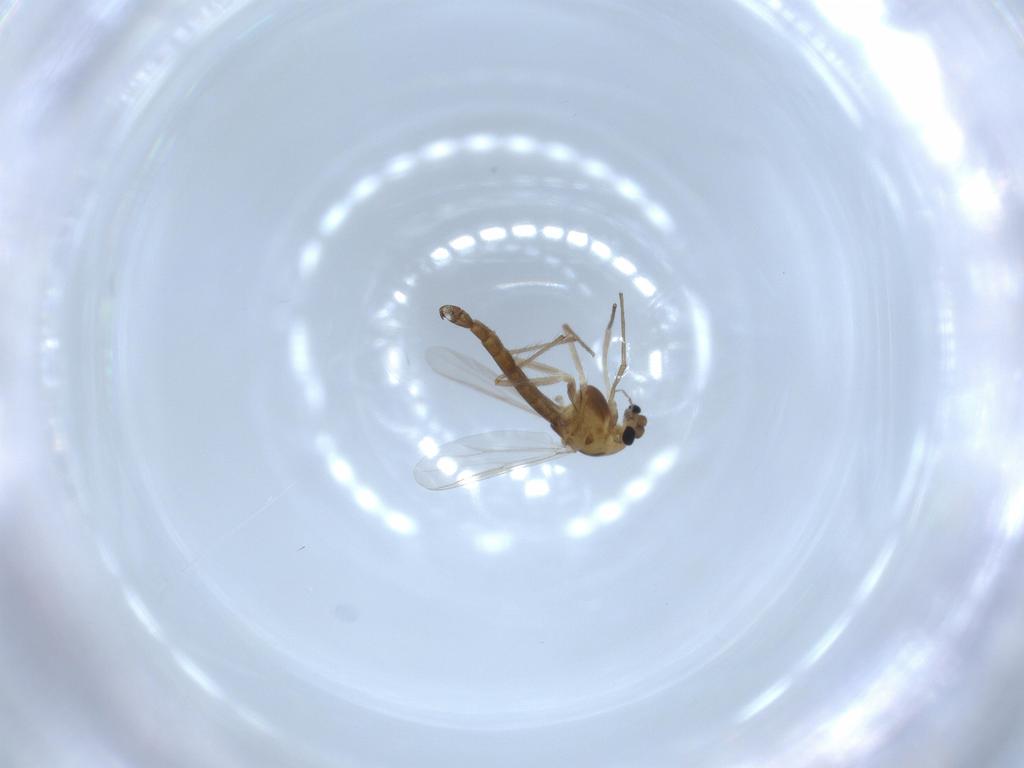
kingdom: Animalia
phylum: Arthropoda
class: Insecta
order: Diptera
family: Chironomidae
